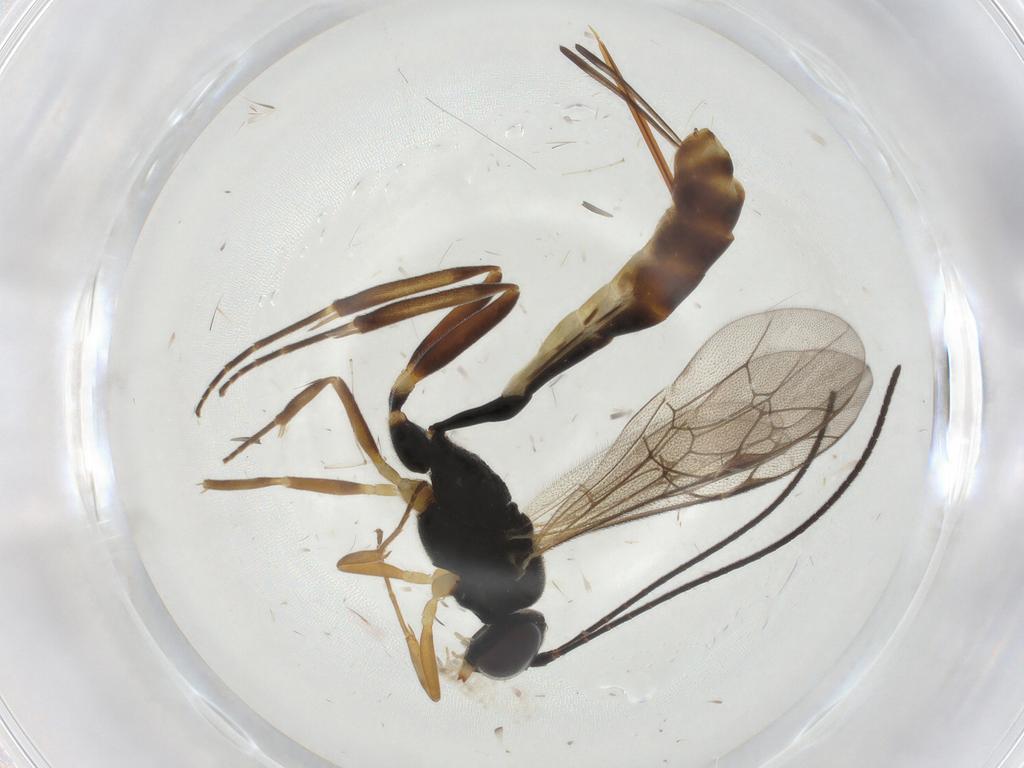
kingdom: Animalia
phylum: Arthropoda
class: Insecta
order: Hymenoptera
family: Ichneumonidae
